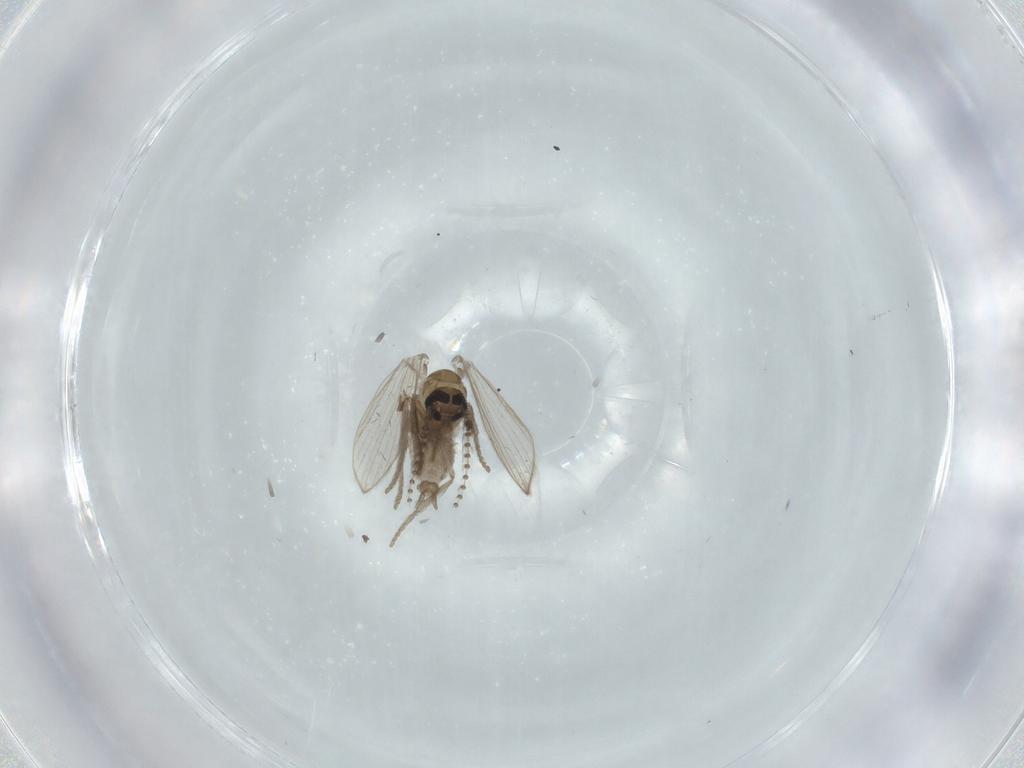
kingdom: Animalia
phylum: Arthropoda
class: Insecta
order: Diptera
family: Psychodidae
